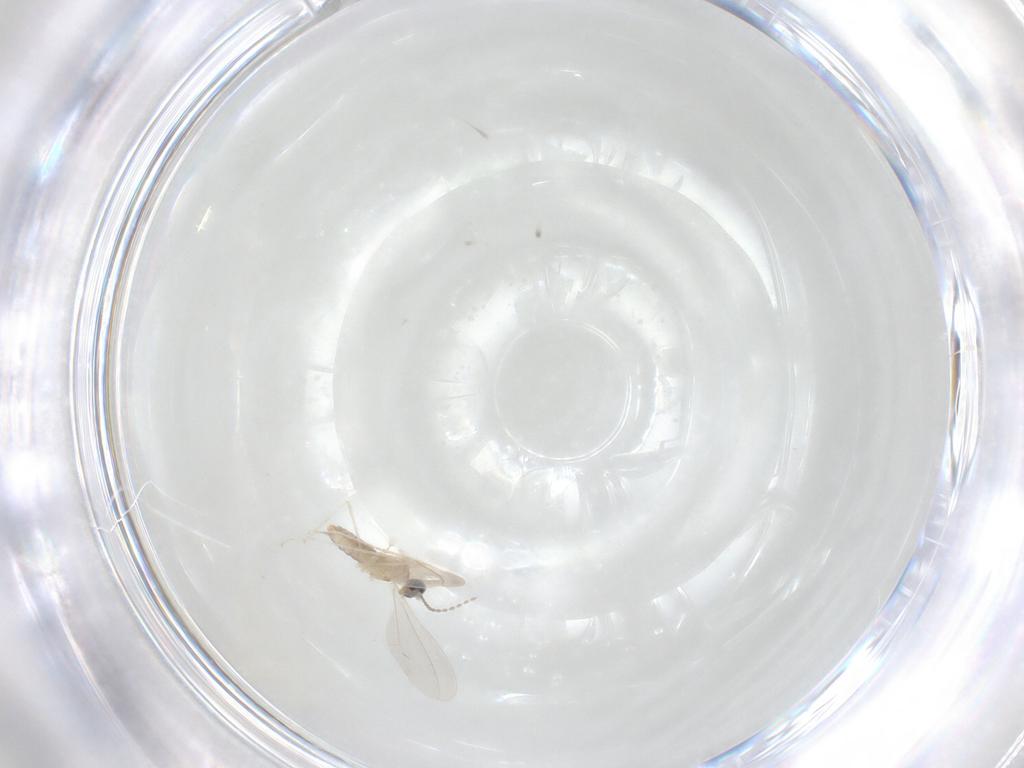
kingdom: Animalia
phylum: Arthropoda
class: Insecta
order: Diptera
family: Cecidomyiidae
